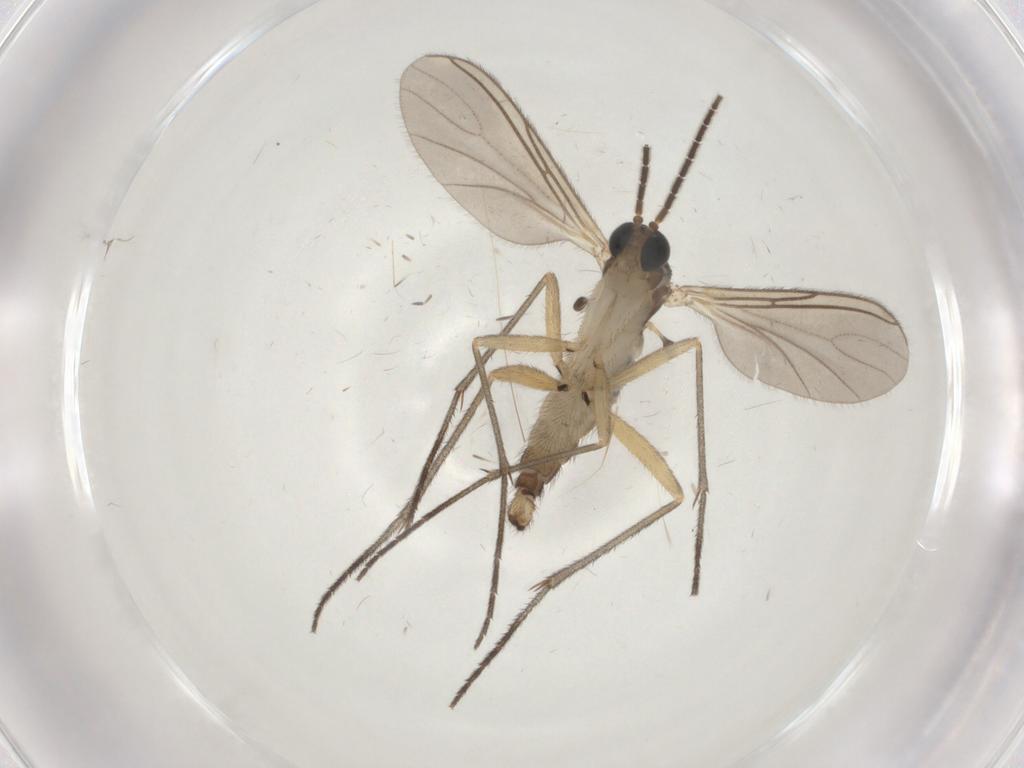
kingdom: Animalia
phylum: Arthropoda
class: Insecta
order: Diptera
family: Sciaridae
